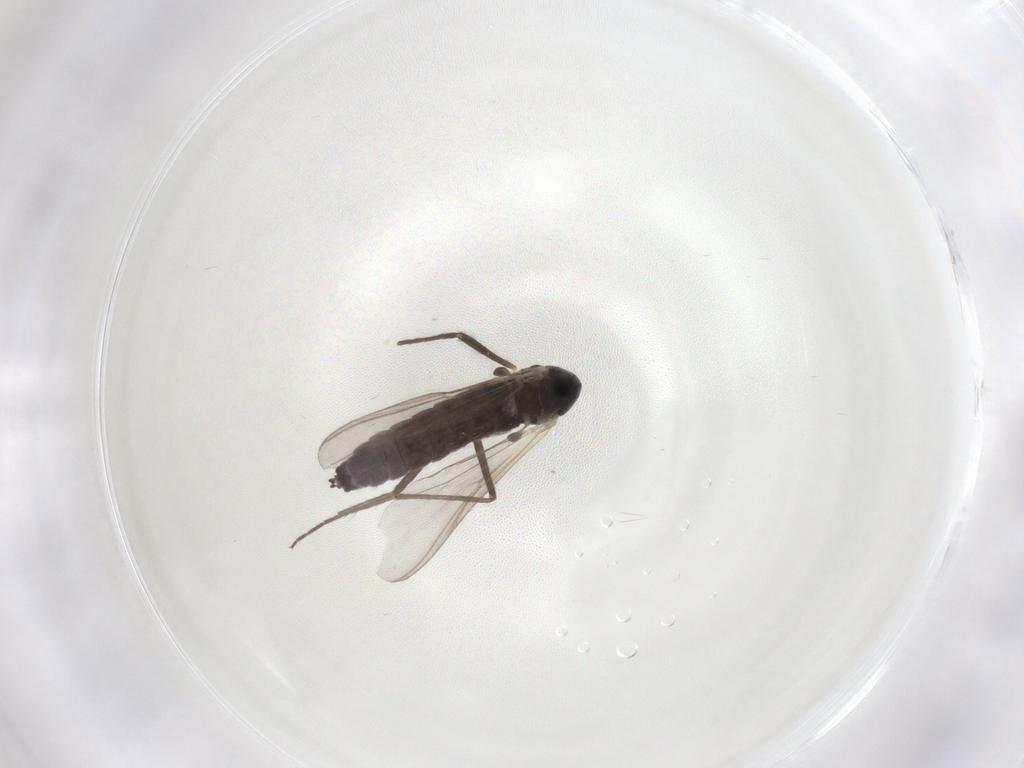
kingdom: Animalia
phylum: Arthropoda
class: Insecta
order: Diptera
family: Chironomidae
